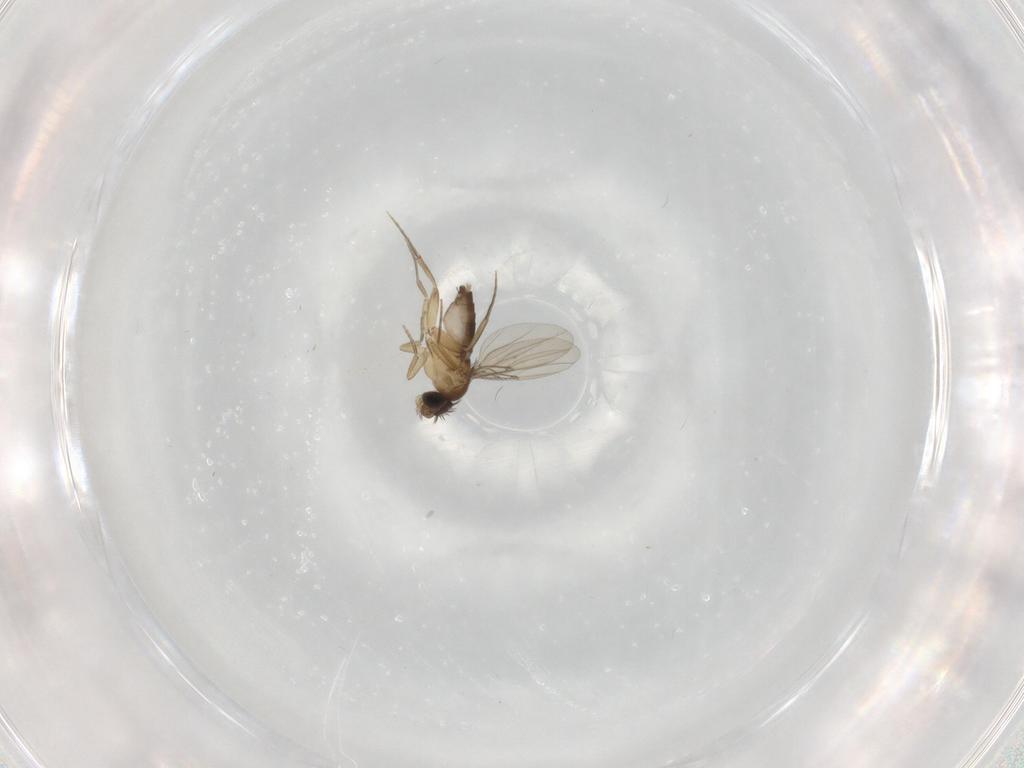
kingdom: Animalia
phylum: Arthropoda
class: Insecta
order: Diptera
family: Phoridae
